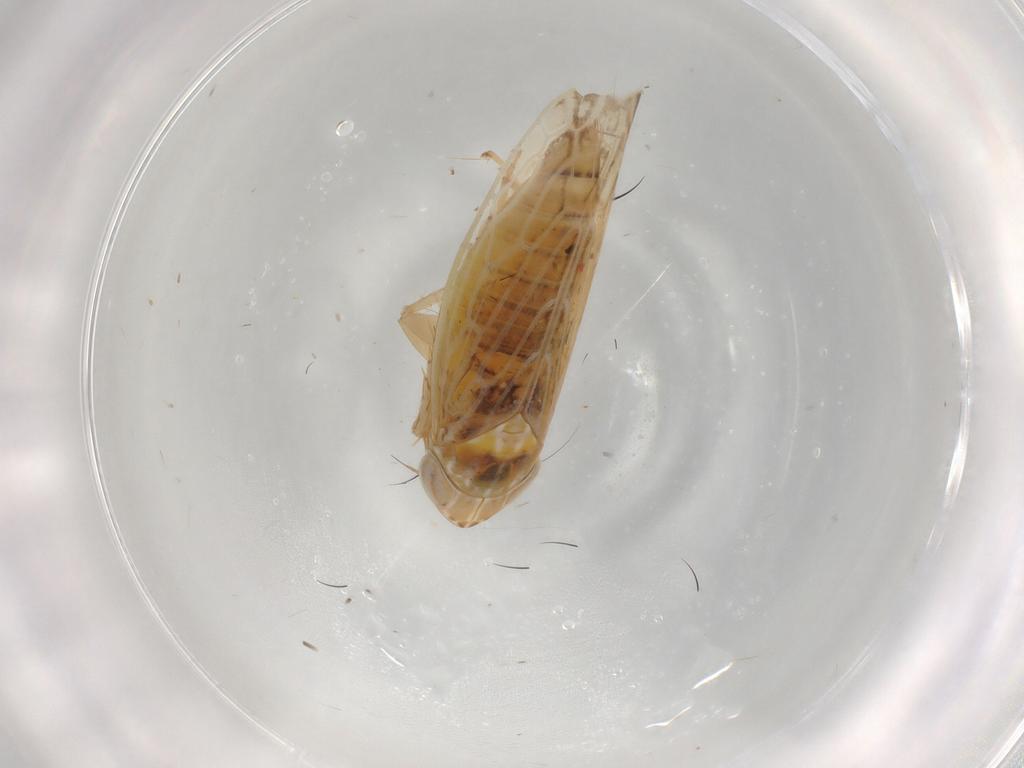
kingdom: Animalia
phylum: Arthropoda
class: Insecta
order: Hemiptera
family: Cicadellidae
